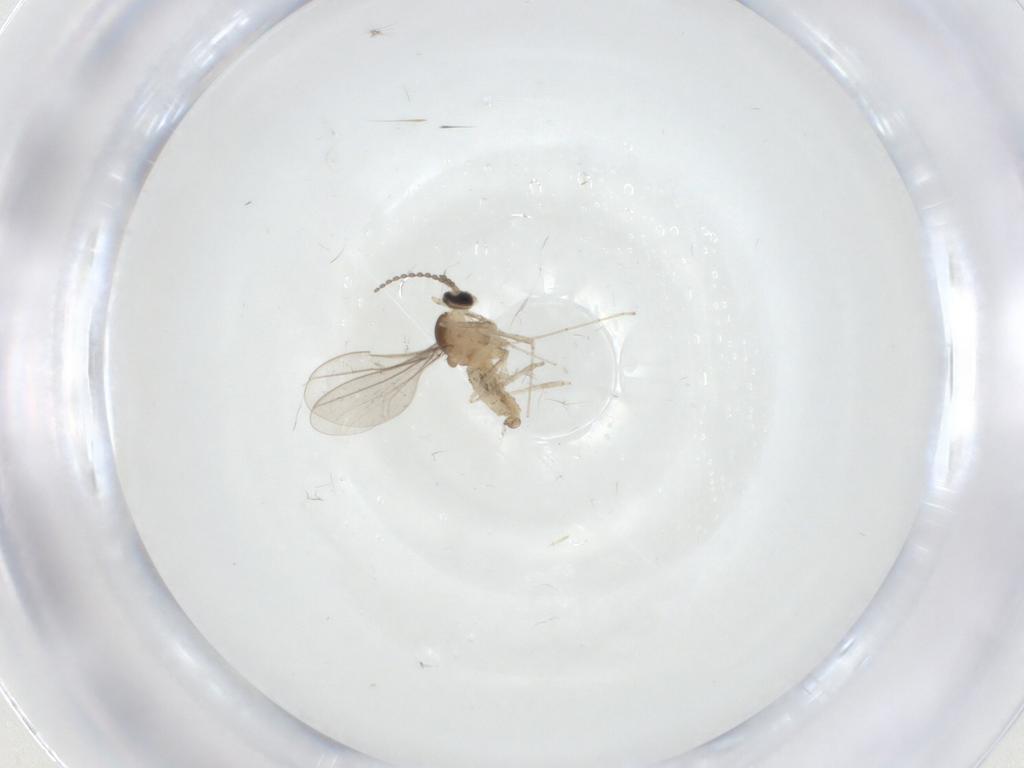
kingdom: Animalia
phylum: Arthropoda
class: Insecta
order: Diptera
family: Cecidomyiidae
